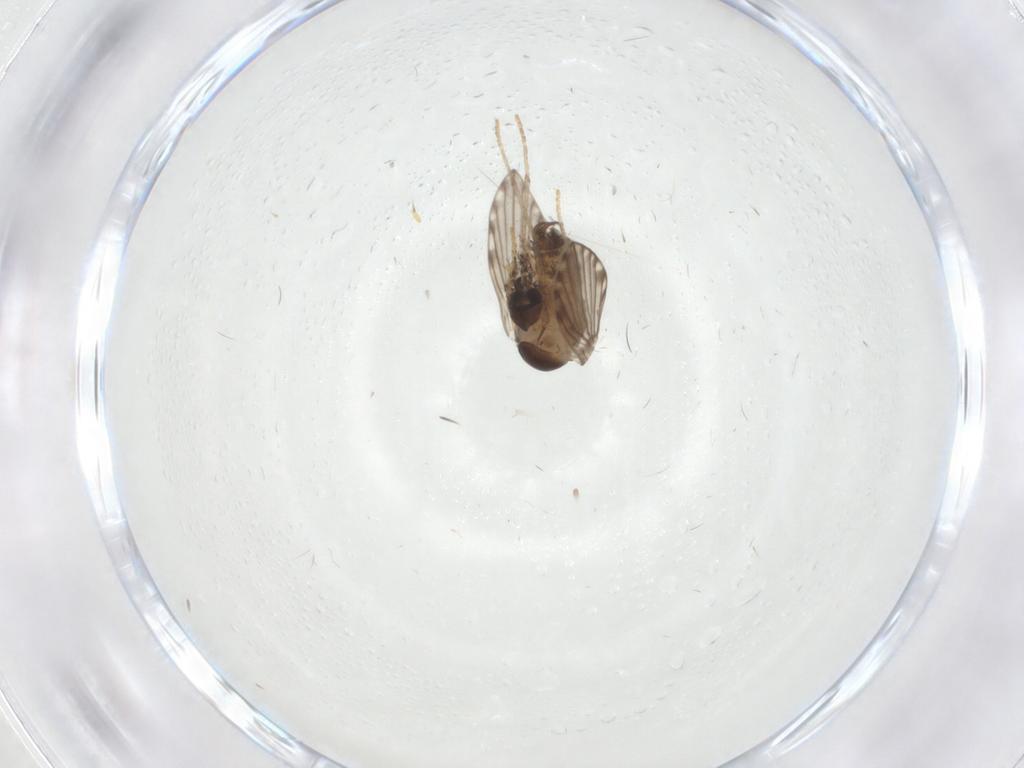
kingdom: Animalia
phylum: Arthropoda
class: Insecta
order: Diptera
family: Psychodidae
